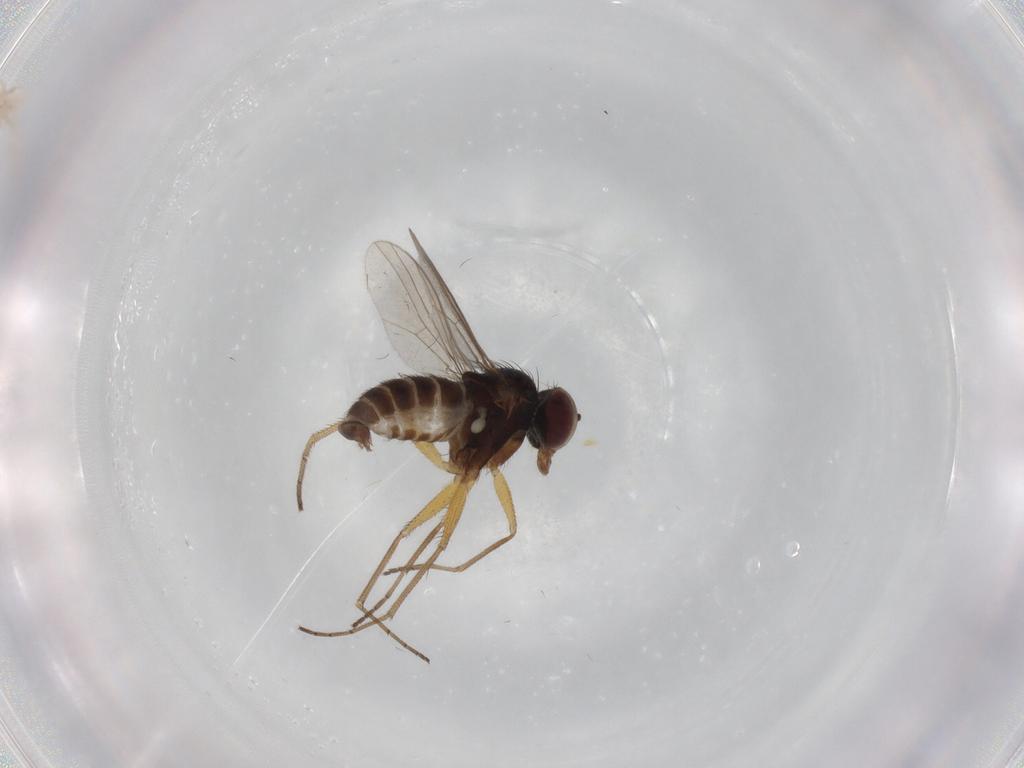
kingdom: Animalia
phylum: Arthropoda
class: Insecta
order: Diptera
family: Dolichopodidae
